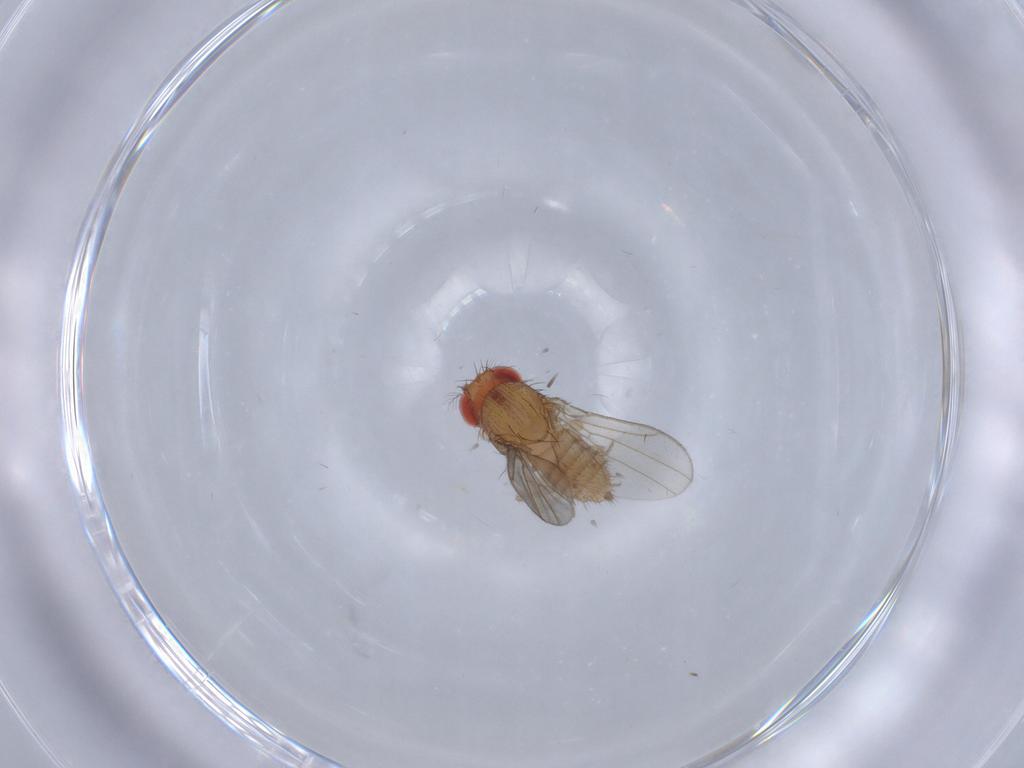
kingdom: Animalia
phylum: Arthropoda
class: Insecta
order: Diptera
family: Drosophilidae
